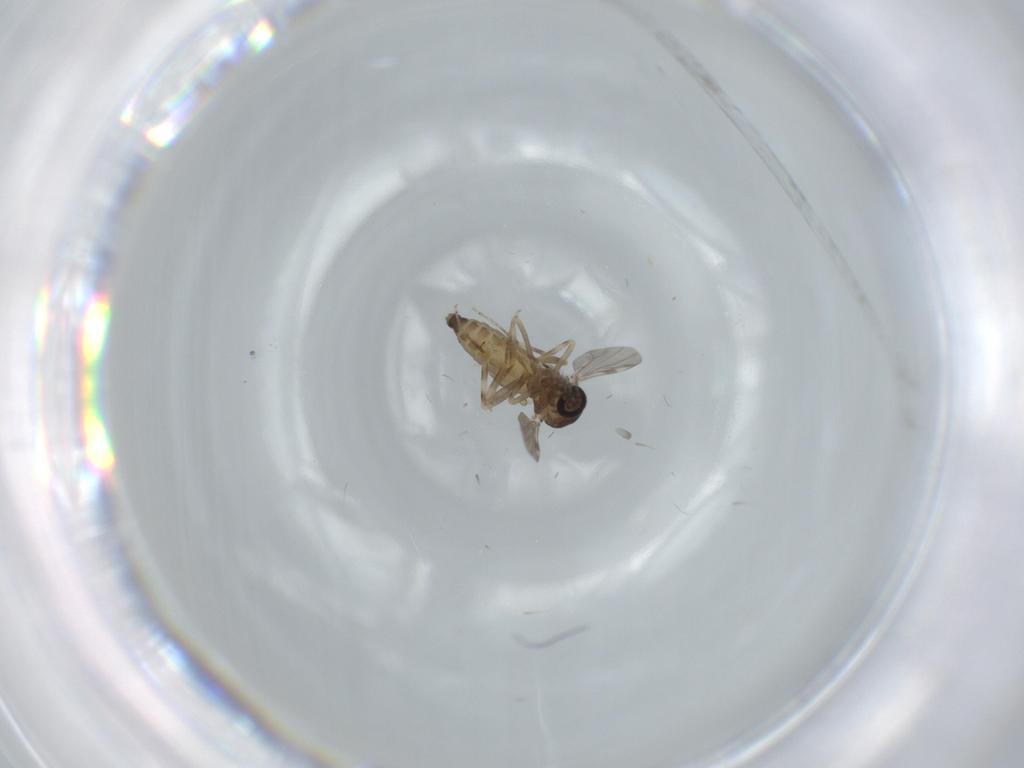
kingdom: Animalia
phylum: Arthropoda
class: Insecta
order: Diptera
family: Ceratopogonidae
